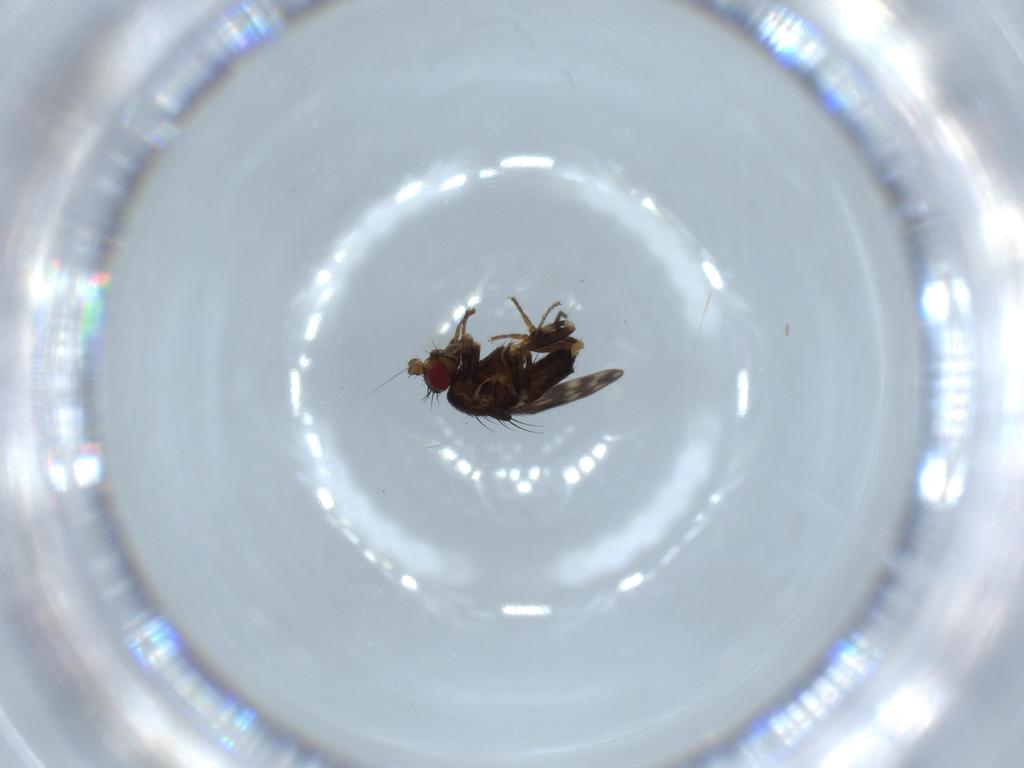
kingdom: Animalia
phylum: Arthropoda
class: Insecta
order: Diptera
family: Sphaeroceridae
